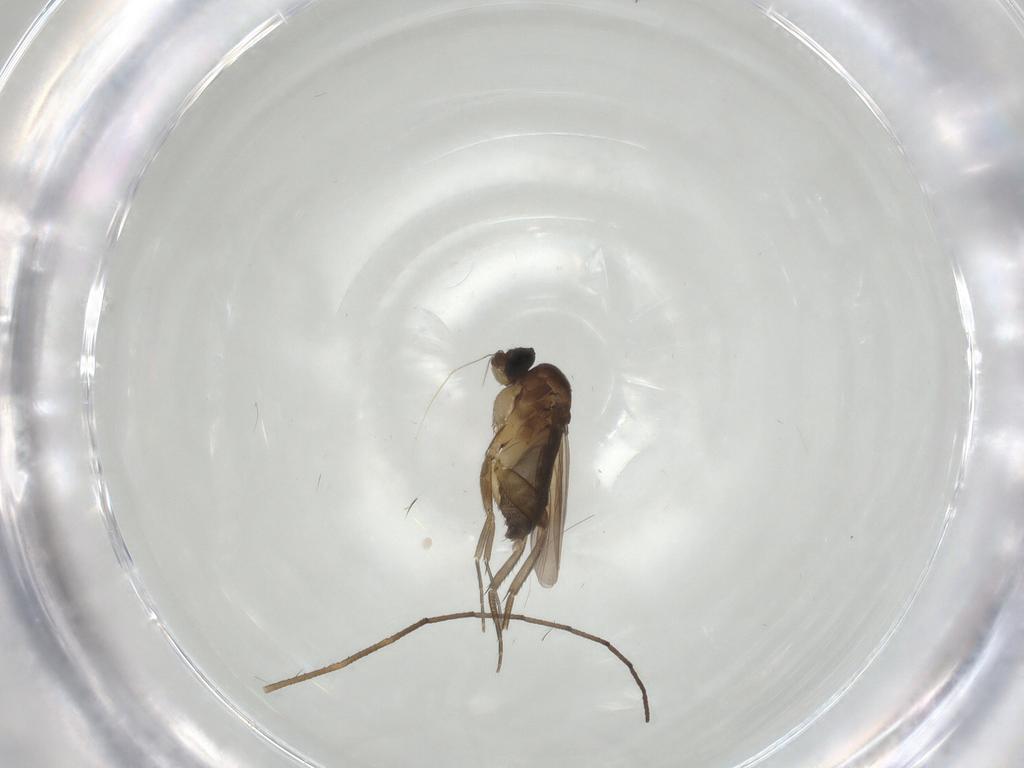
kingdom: Animalia
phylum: Arthropoda
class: Insecta
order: Diptera
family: Phoridae
